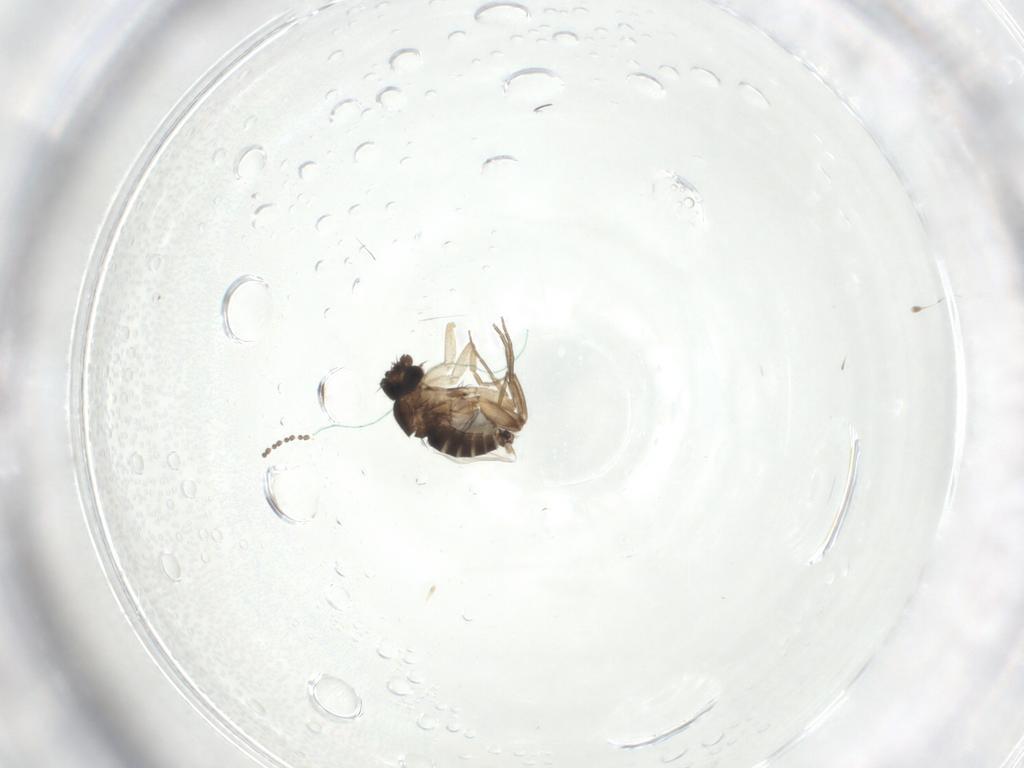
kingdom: Animalia
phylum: Arthropoda
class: Insecta
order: Diptera
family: Cecidomyiidae
